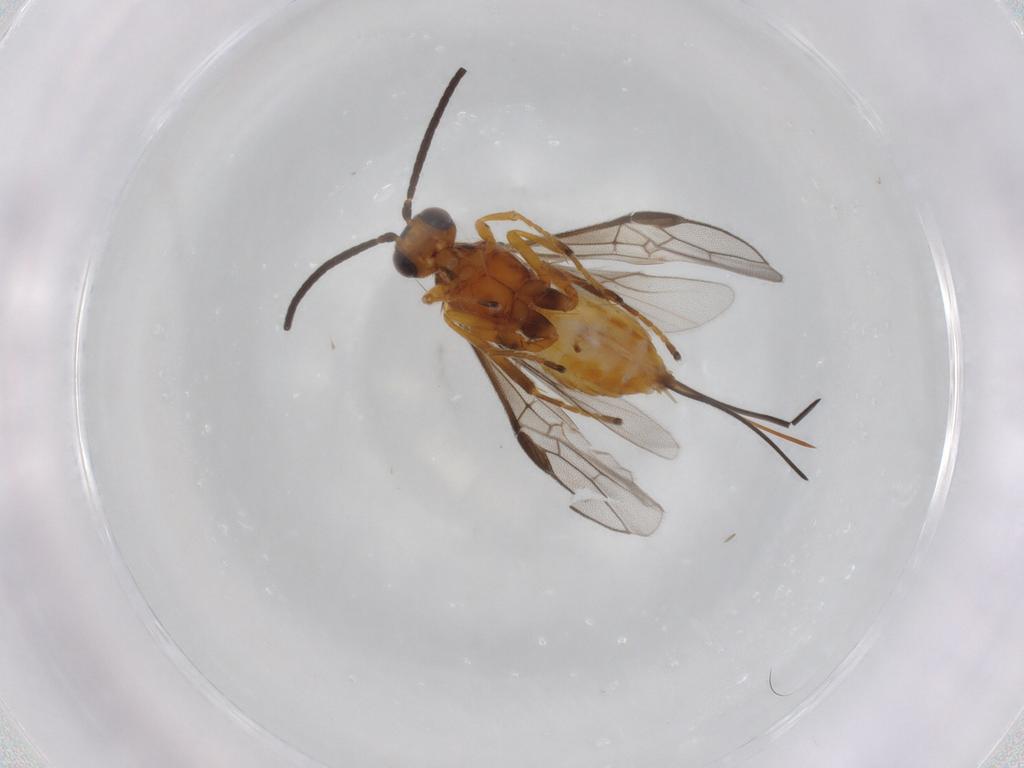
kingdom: Animalia
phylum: Arthropoda
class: Insecta
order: Hymenoptera
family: Braconidae
